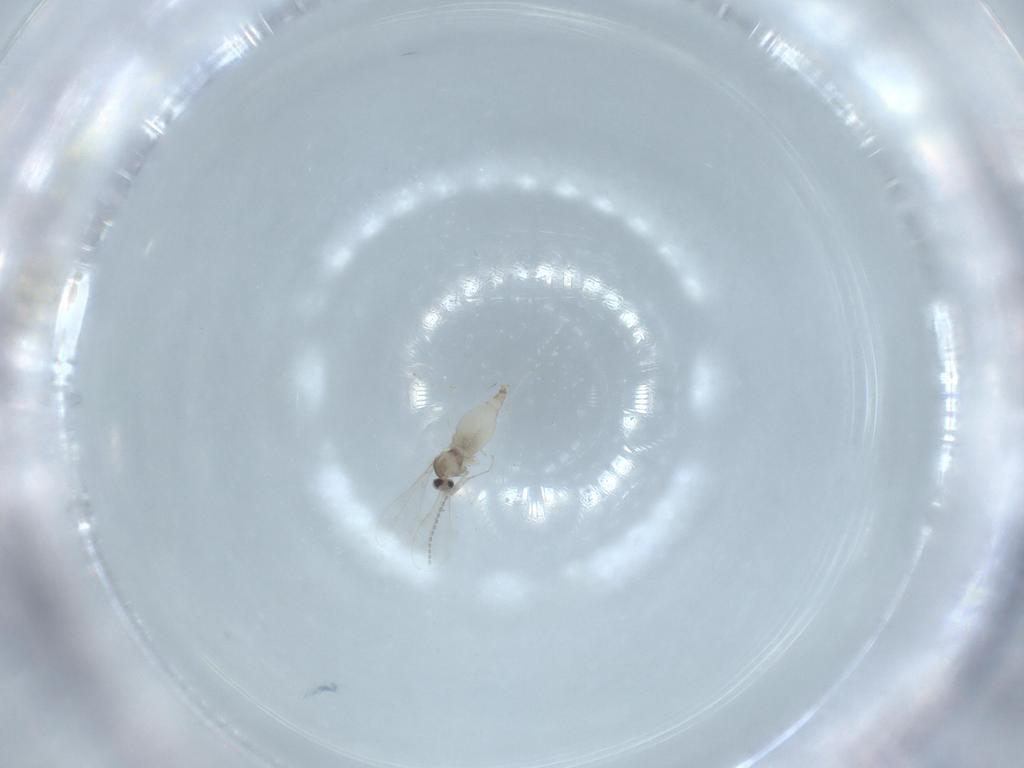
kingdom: Animalia
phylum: Arthropoda
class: Insecta
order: Diptera
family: Cecidomyiidae
